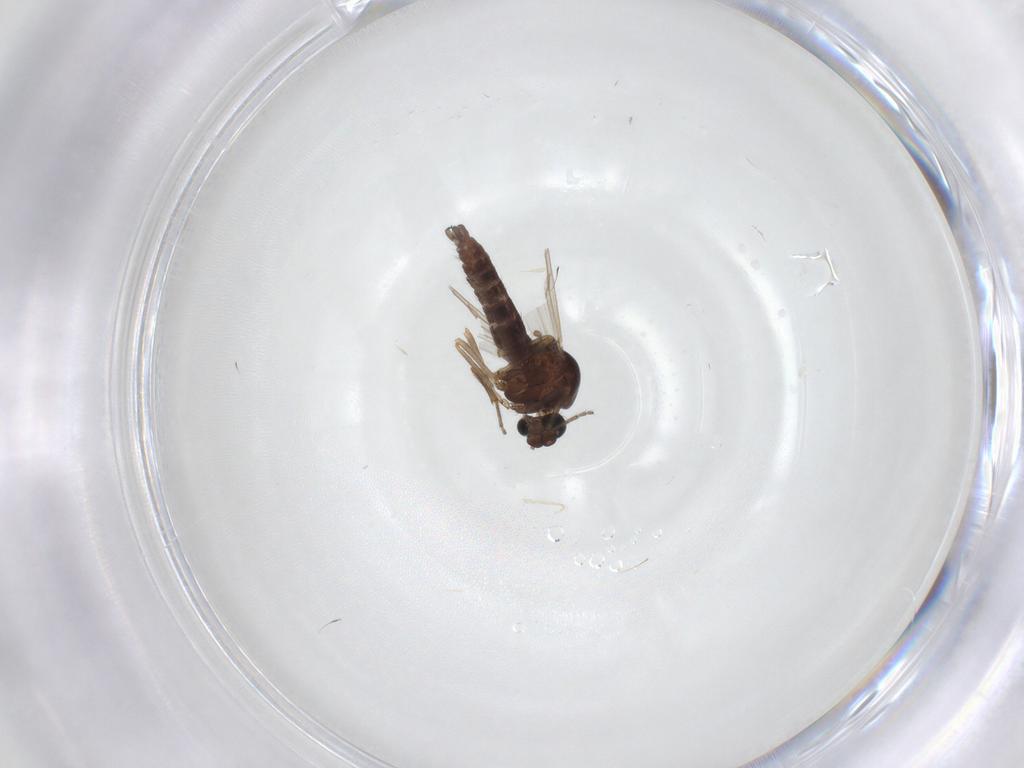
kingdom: Animalia
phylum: Arthropoda
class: Insecta
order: Diptera
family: Ceratopogonidae
